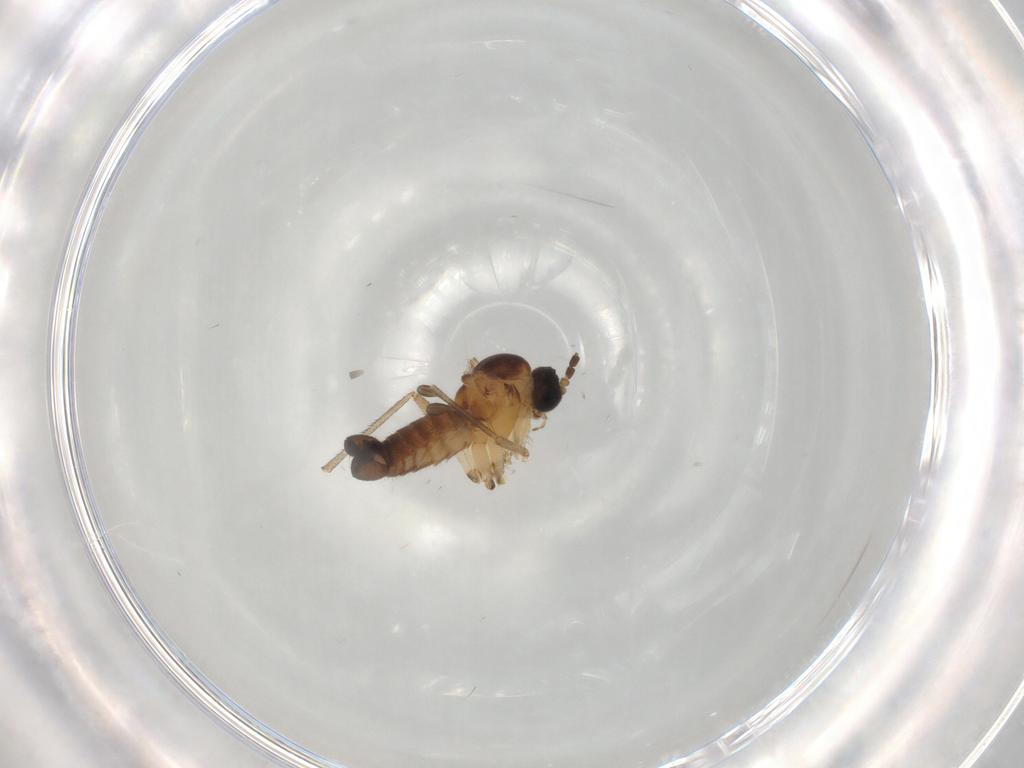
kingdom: Animalia
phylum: Arthropoda
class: Insecta
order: Diptera
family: Sciaridae
